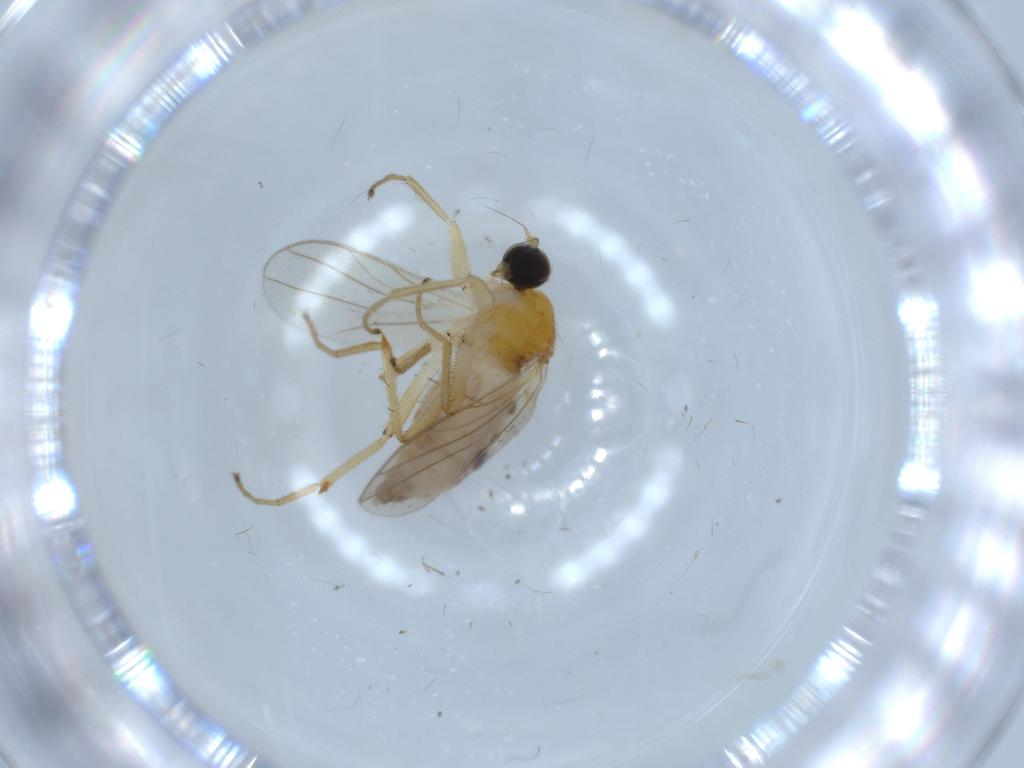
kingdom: Animalia
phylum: Arthropoda
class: Insecta
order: Diptera
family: Hybotidae
